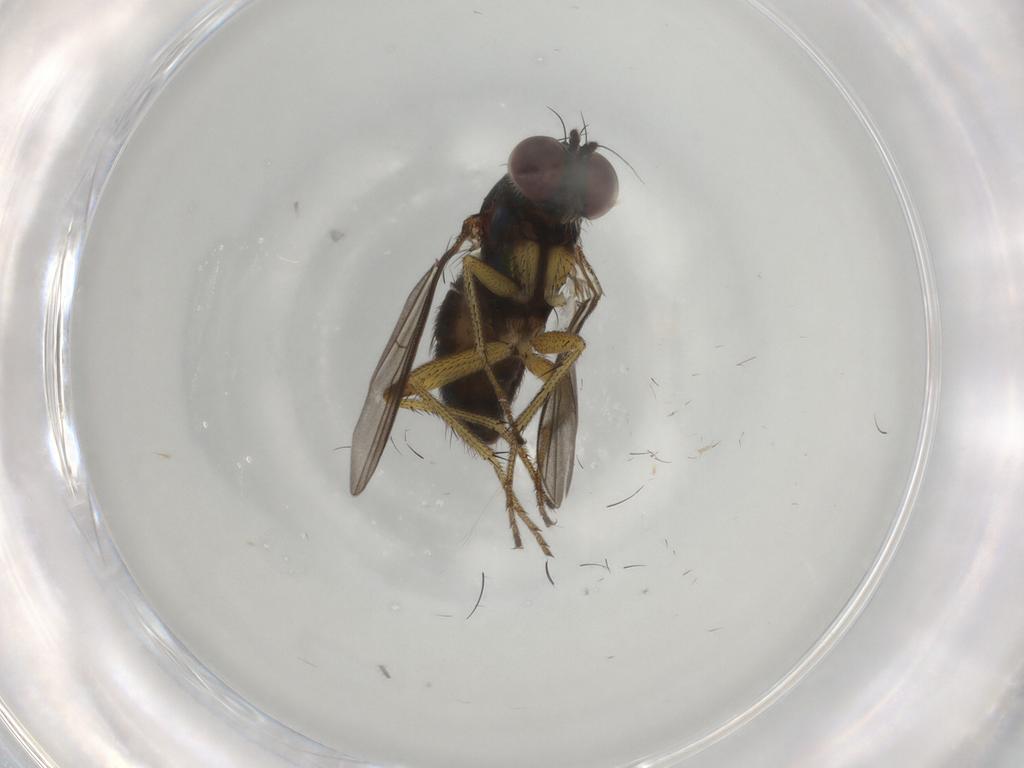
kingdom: Animalia
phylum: Arthropoda
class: Insecta
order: Diptera
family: Dolichopodidae
